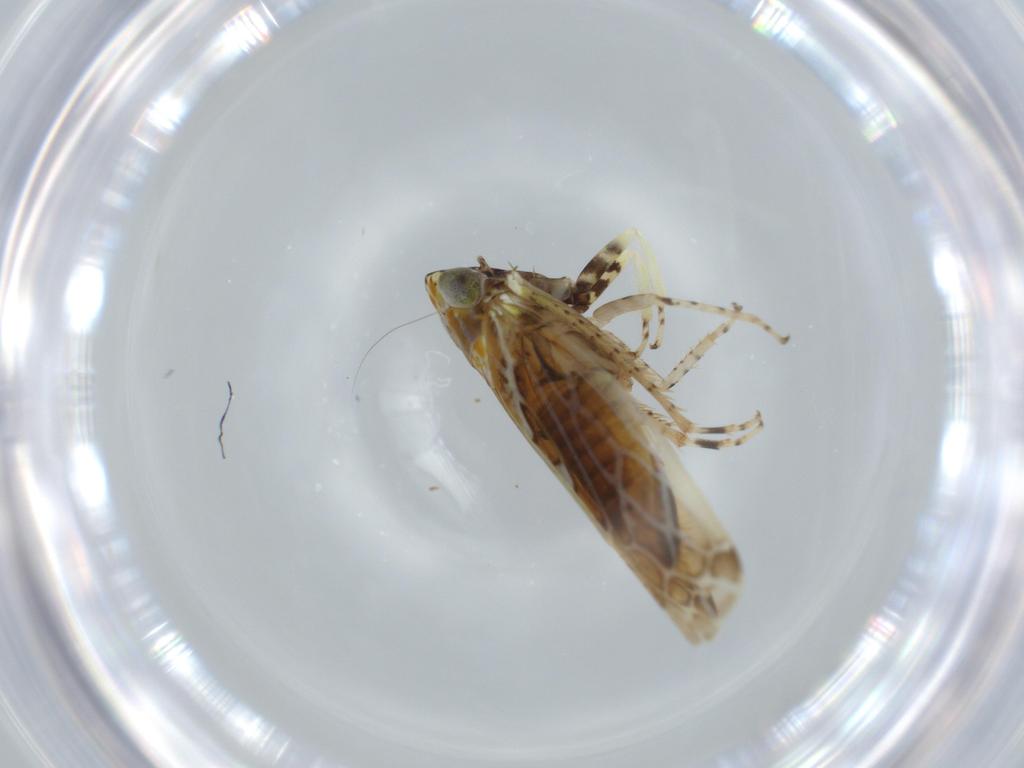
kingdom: Animalia
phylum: Arthropoda
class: Insecta
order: Hemiptera
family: Cicadellidae
